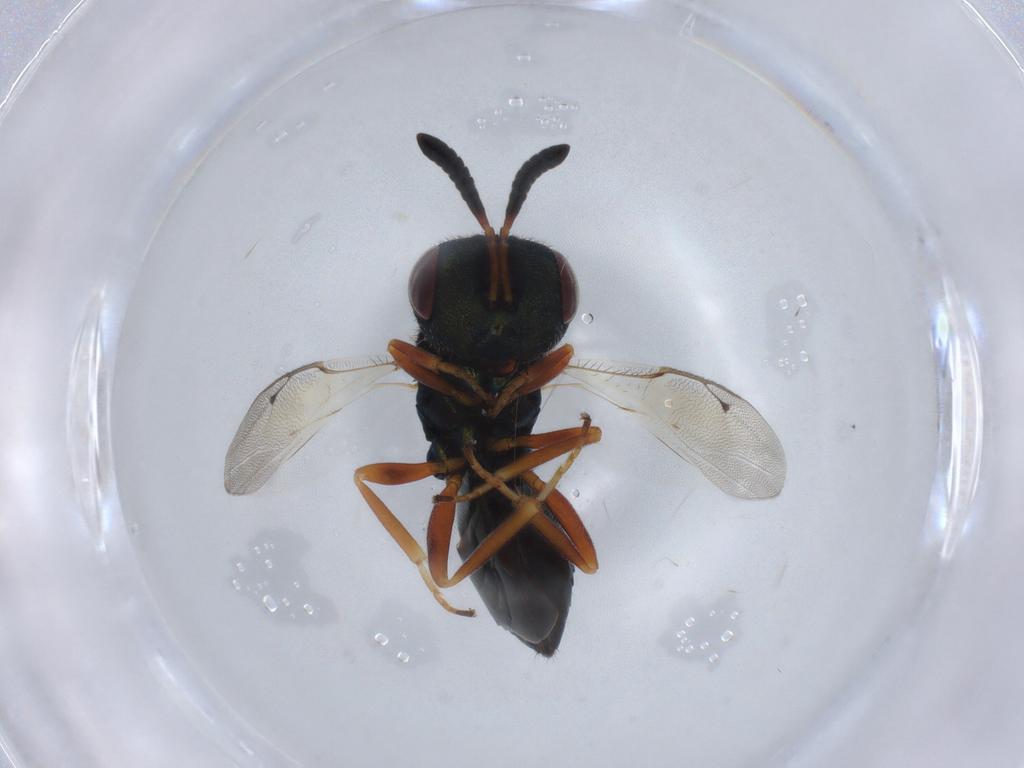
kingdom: Animalia
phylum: Arthropoda
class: Insecta
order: Hymenoptera
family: Mymaridae
